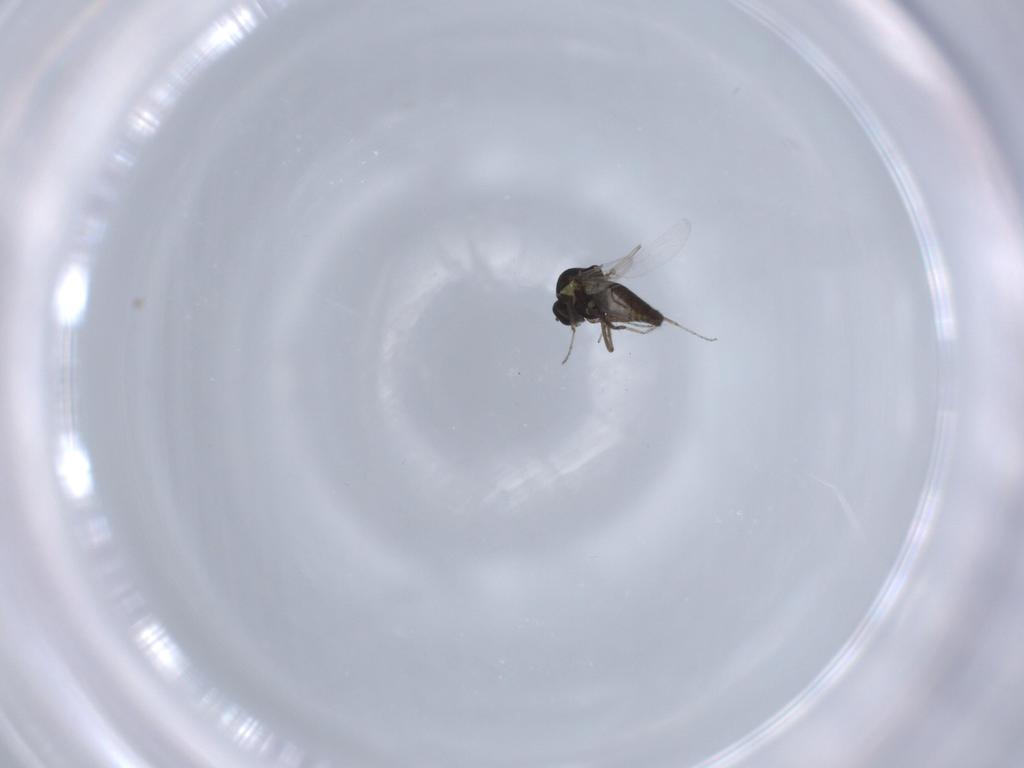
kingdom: Animalia
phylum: Arthropoda
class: Insecta
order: Diptera
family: Ceratopogonidae
